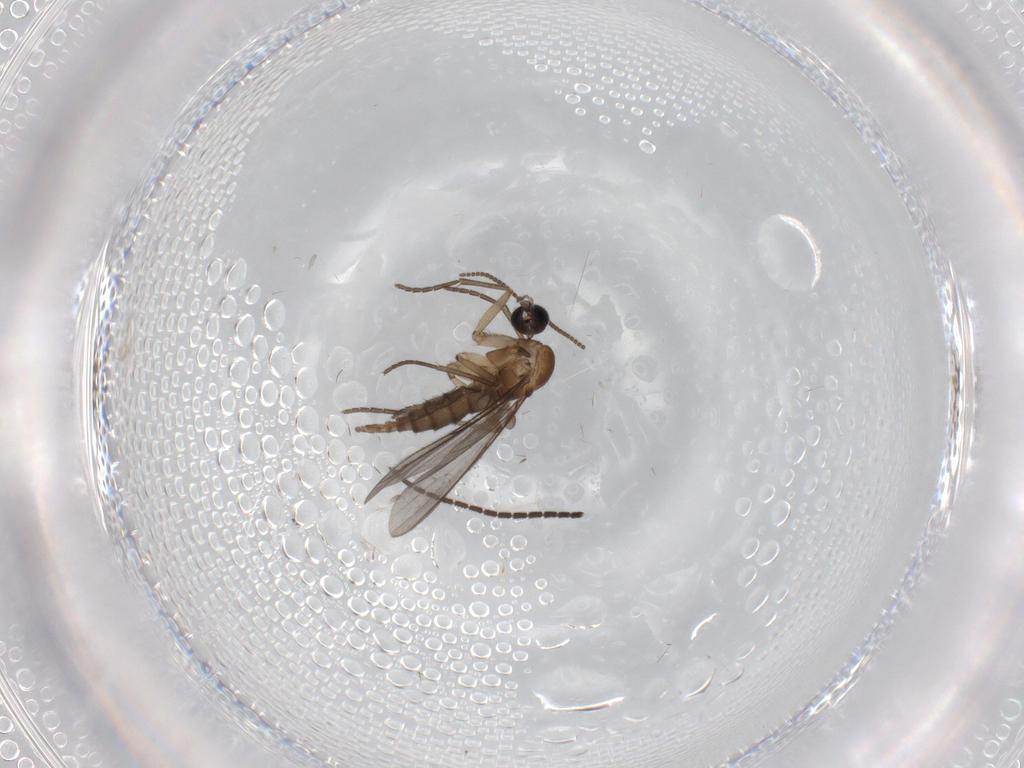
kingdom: Animalia
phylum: Arthropoda
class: Insecta
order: Diptera
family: Sciaridae
